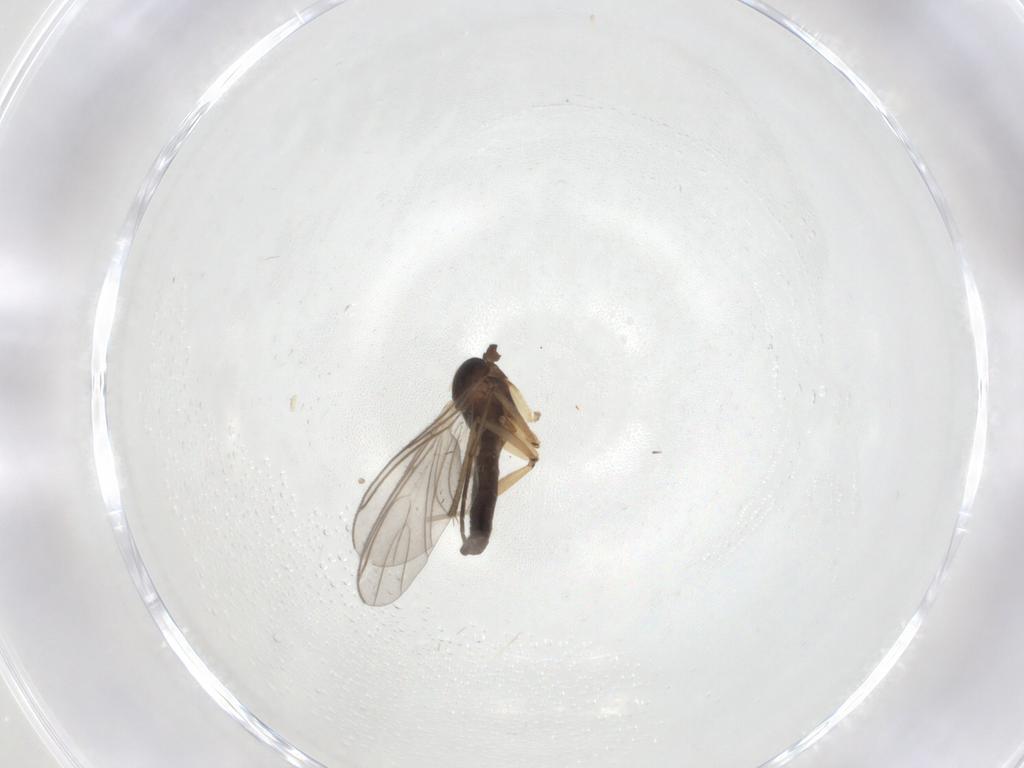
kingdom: Animalia
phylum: Arthropoda
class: Insecta
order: Diptera
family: Sciaridae
